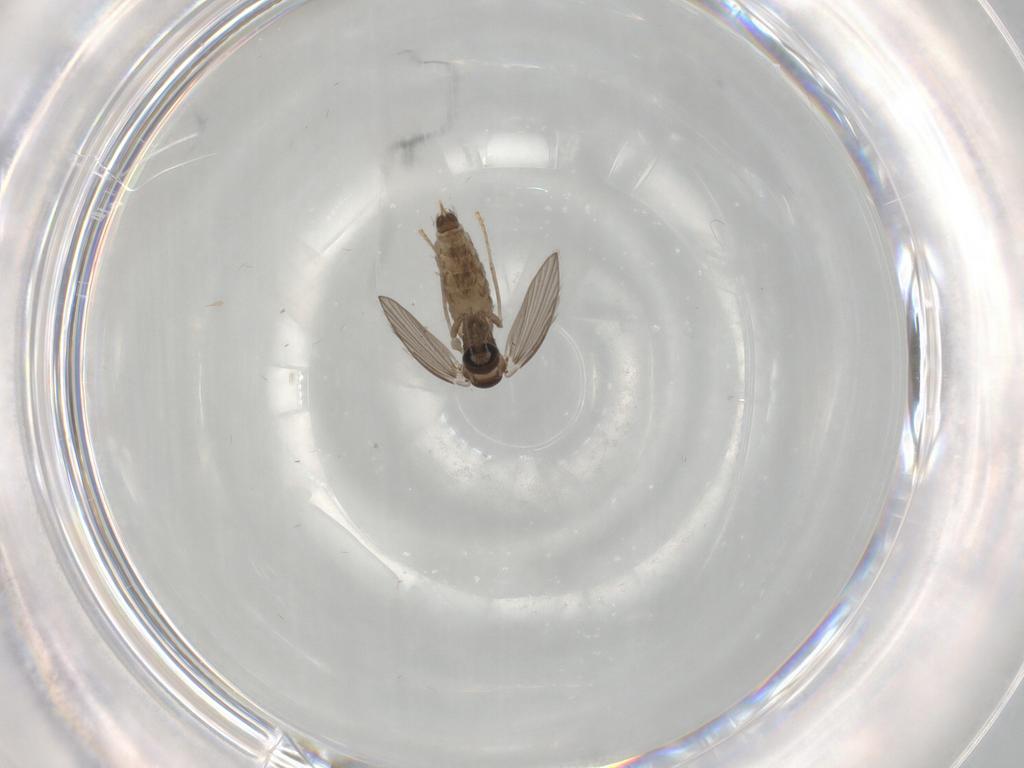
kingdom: Animalia
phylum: Arthropoda
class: Insecta
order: Diptera
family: Psychodidae
